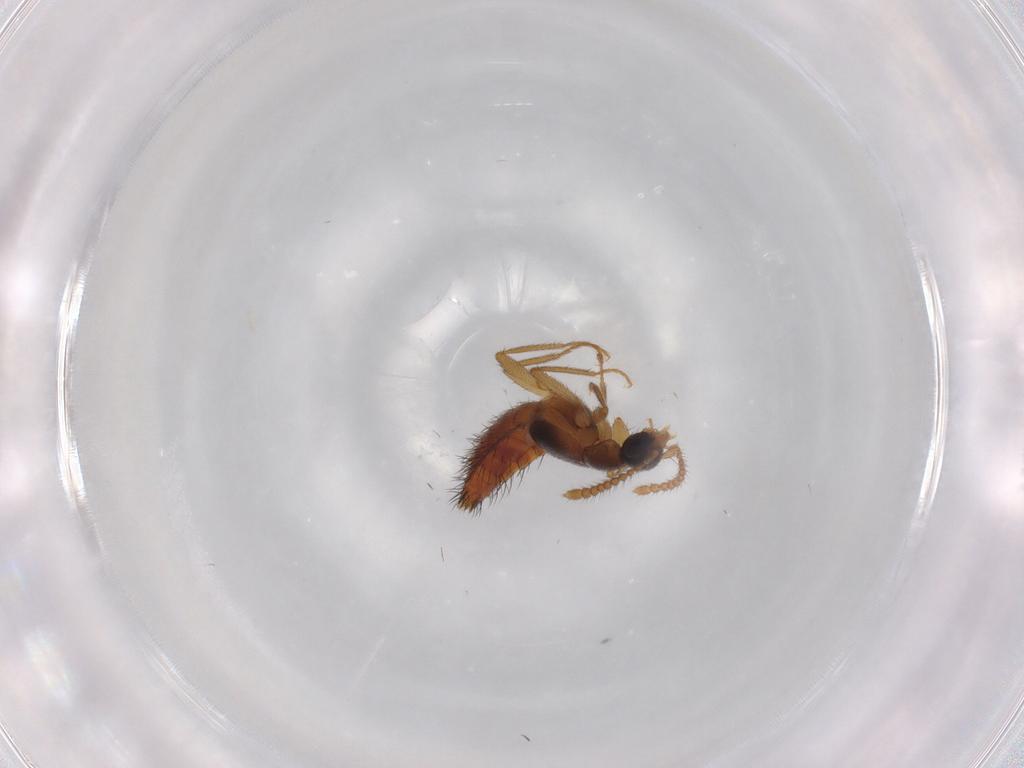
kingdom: Animalia
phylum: Arthropoda
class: Insecta
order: Coleoptera
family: Staphylinidae
